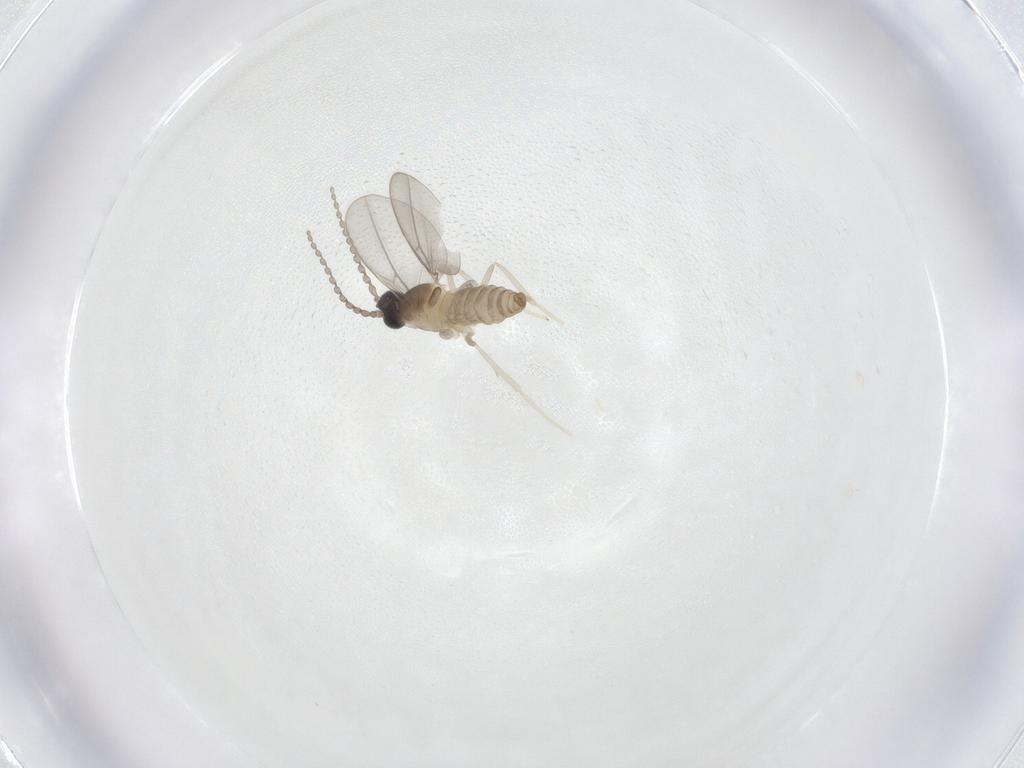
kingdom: Animalia
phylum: Arthropoda
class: Insecta
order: Diptera
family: Cecidomyiidae
